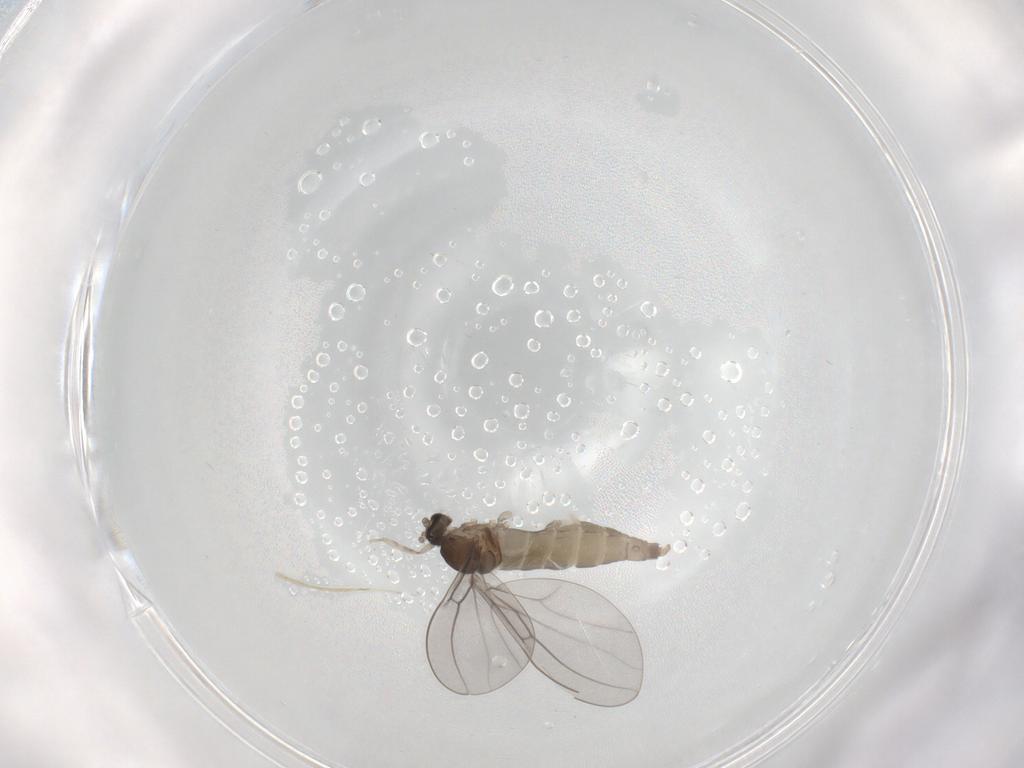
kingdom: Animalia
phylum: Arthropoda
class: Insecta
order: Diptera
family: Cecidomyiidae
